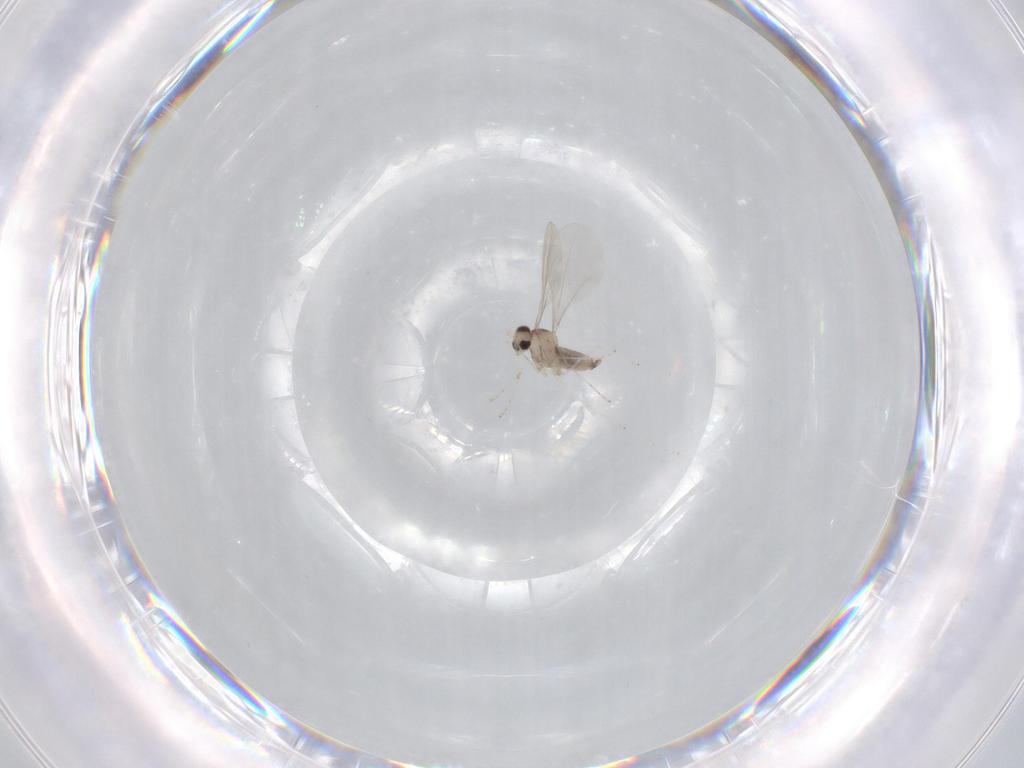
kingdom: Animalia
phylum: Arthropoda
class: Insecta
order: Diptera
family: Cecidomyiidae
